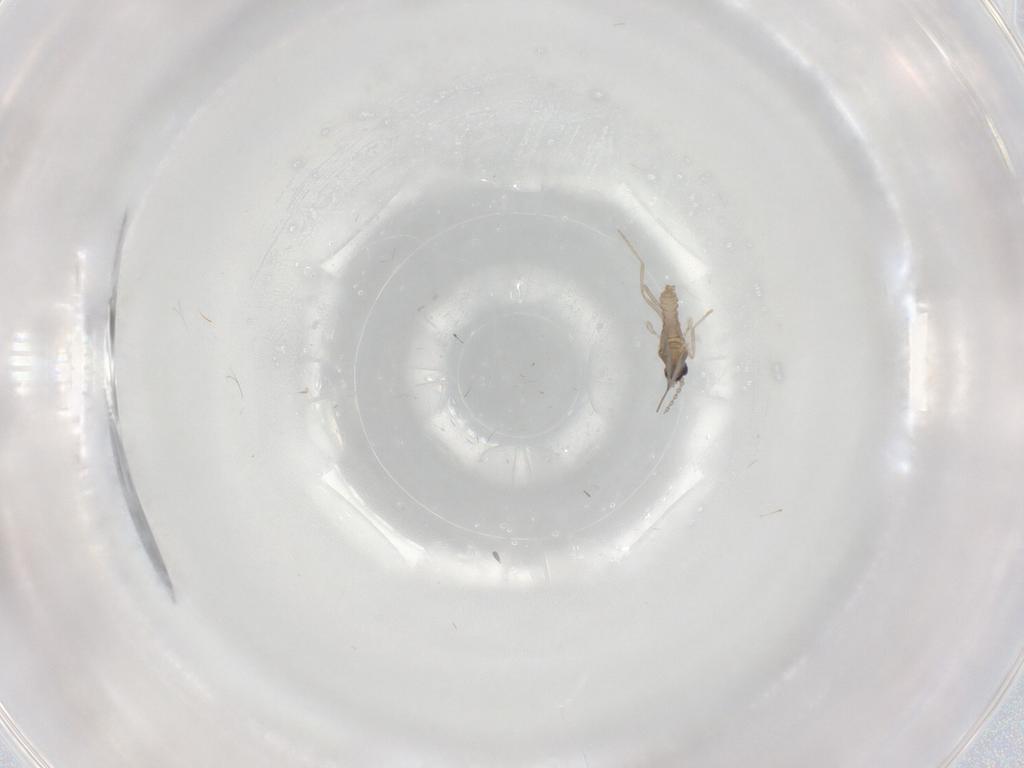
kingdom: Animalia
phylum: Arthropoda
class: Insecta
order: Diptera
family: Cecidomyiidae
